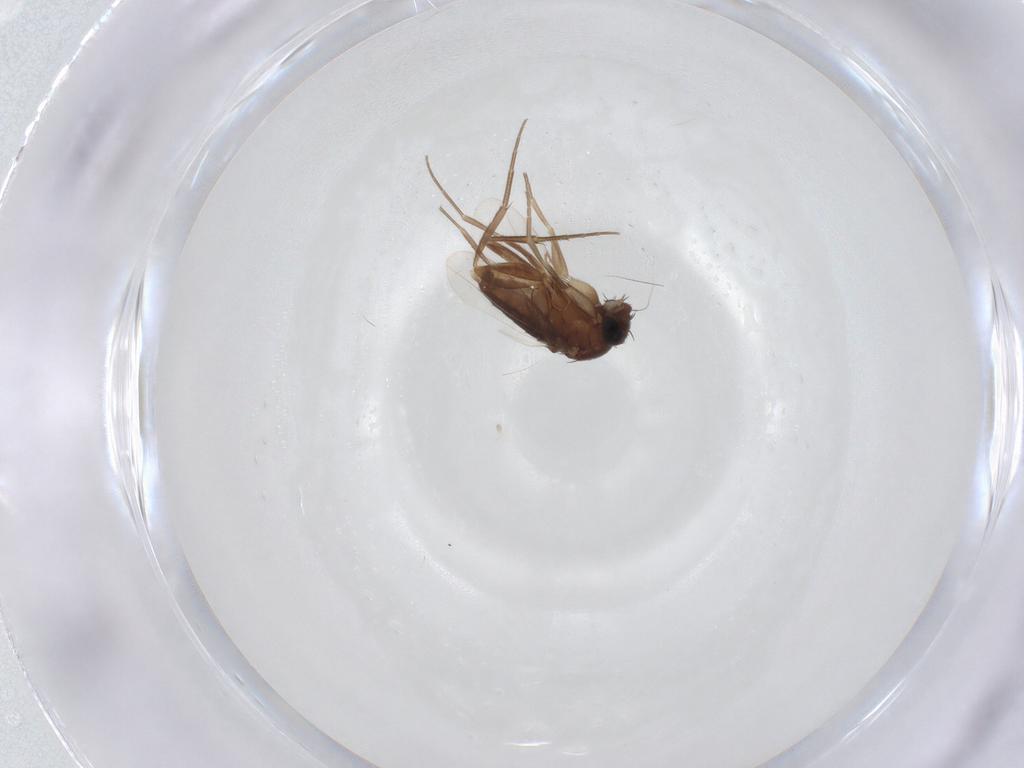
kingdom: Animalia
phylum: Arthropoda
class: Insecta
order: Diptera
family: Phoridae
